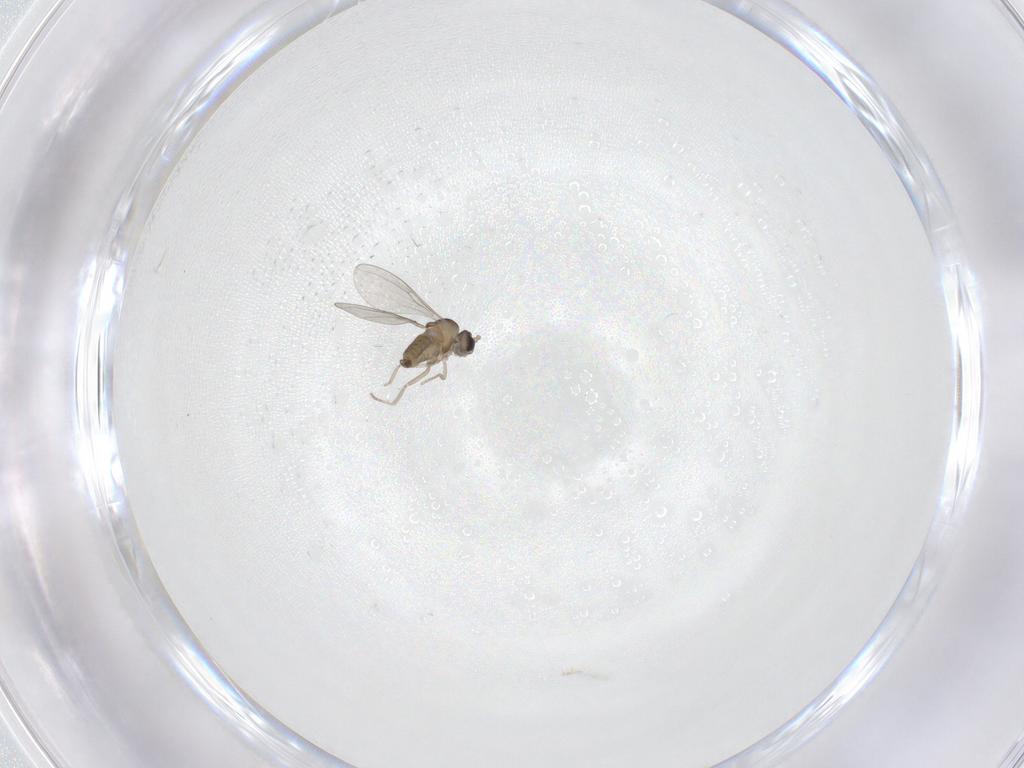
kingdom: Animalia
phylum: Arthropoda
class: Insecta
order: Diptera
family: Cecidomyiidae
